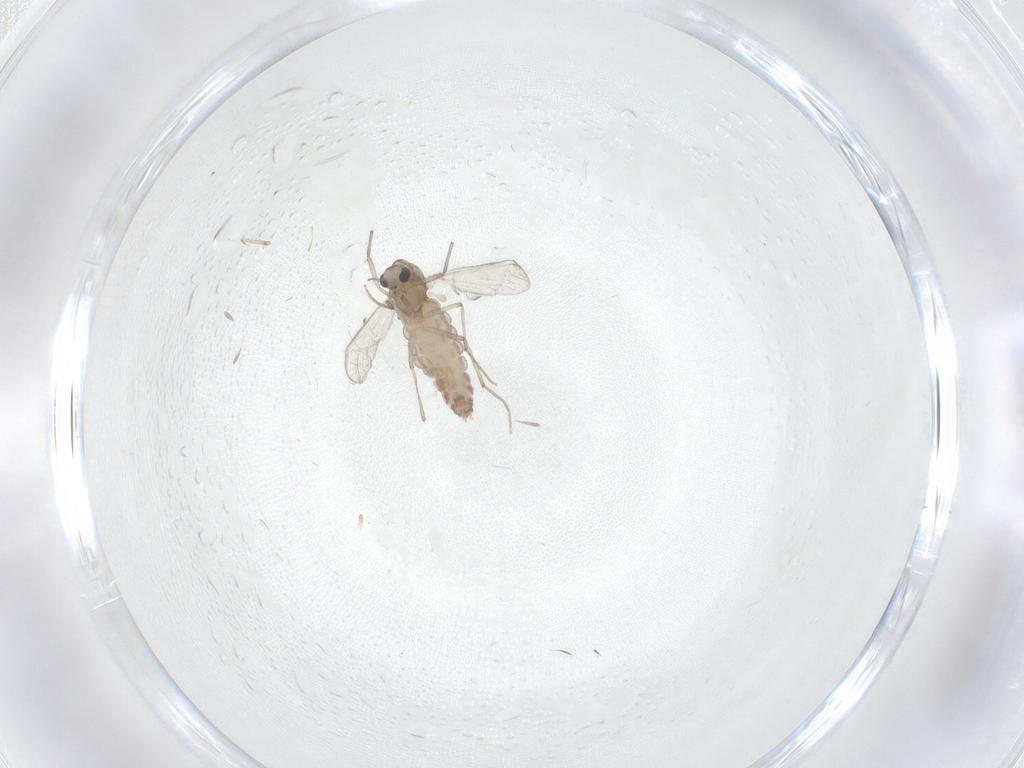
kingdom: Animalia
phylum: Arthropoda
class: Insecta
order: Diptera
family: Chironomidae
